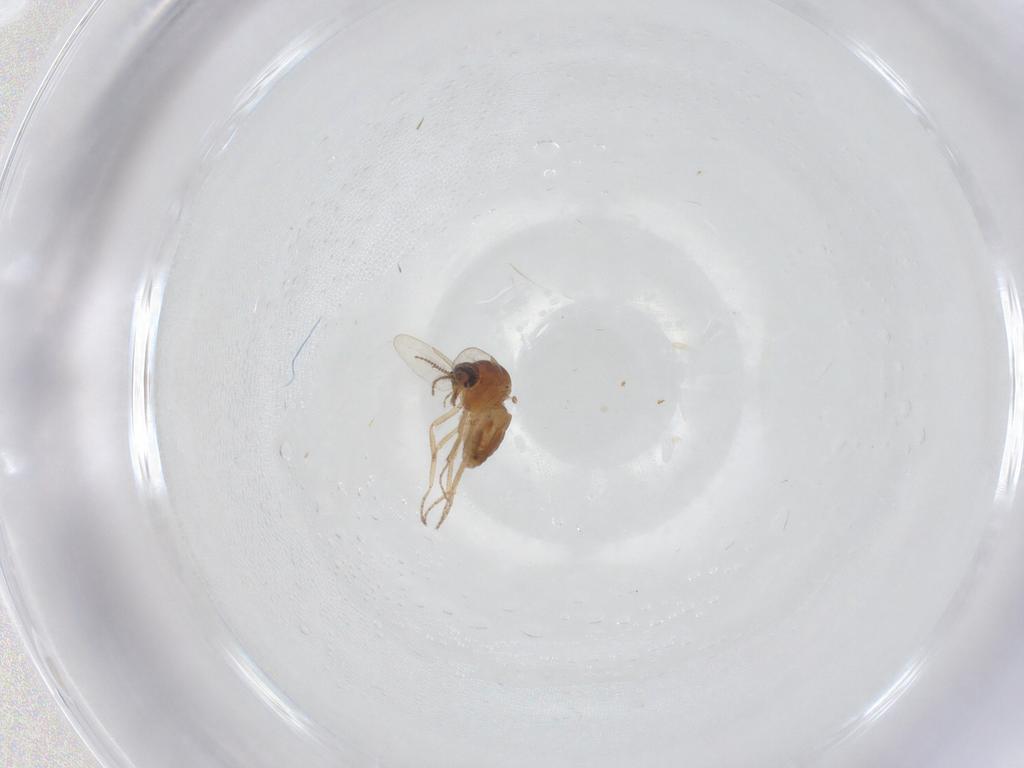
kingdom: Animalia
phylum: Arthropoda
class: Insecta
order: Diptera
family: Ceratopogonidae
